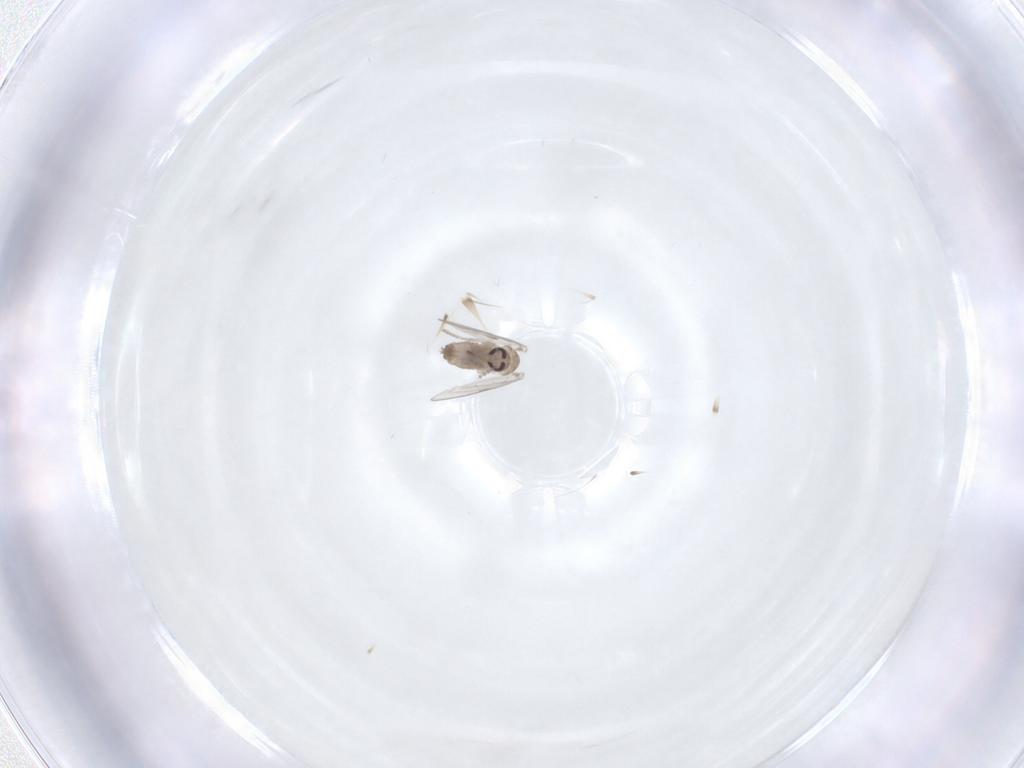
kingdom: Animalia
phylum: Arthropoda
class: Insecta
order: Diptera
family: Psychodidae
